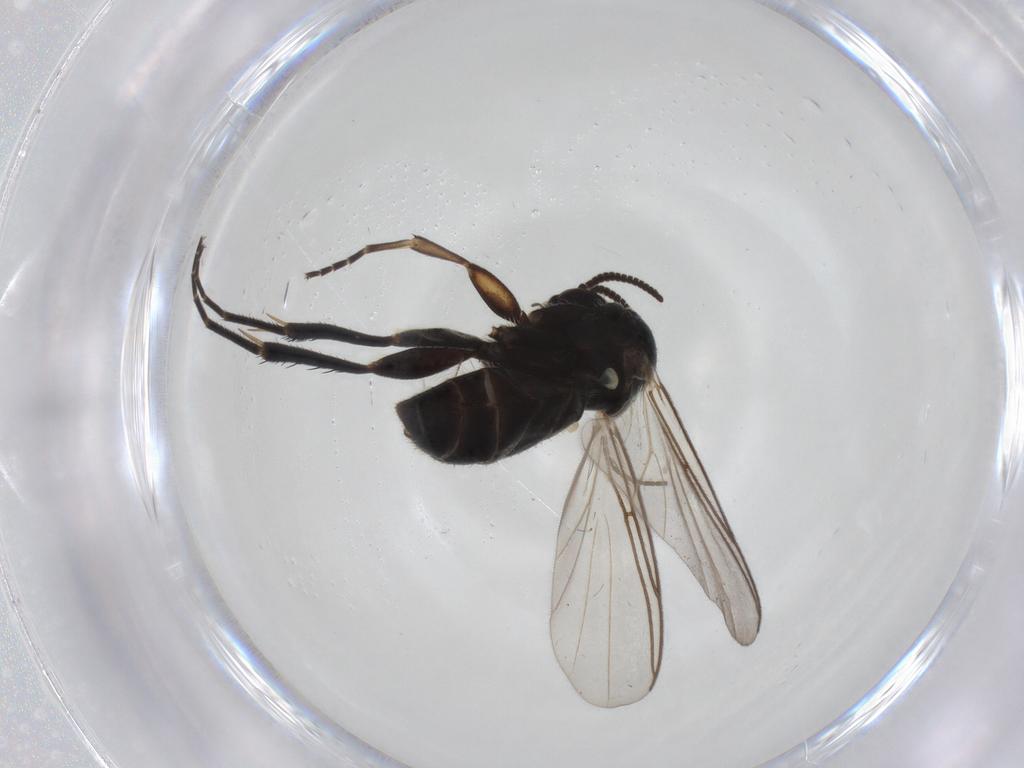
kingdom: Animalia
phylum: Arthropoda
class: Insecta
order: Diptera
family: Mycetophilidae
